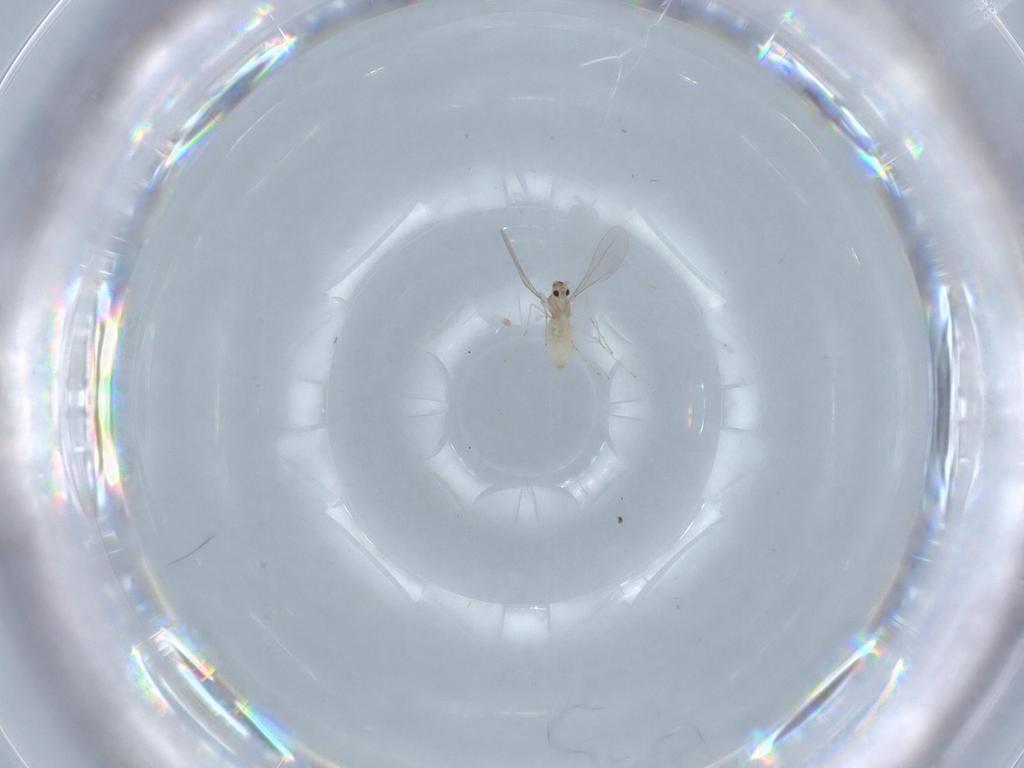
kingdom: Animalia
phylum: Arthropoda
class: Insecta
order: Diptera
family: Cecidomyiidae
